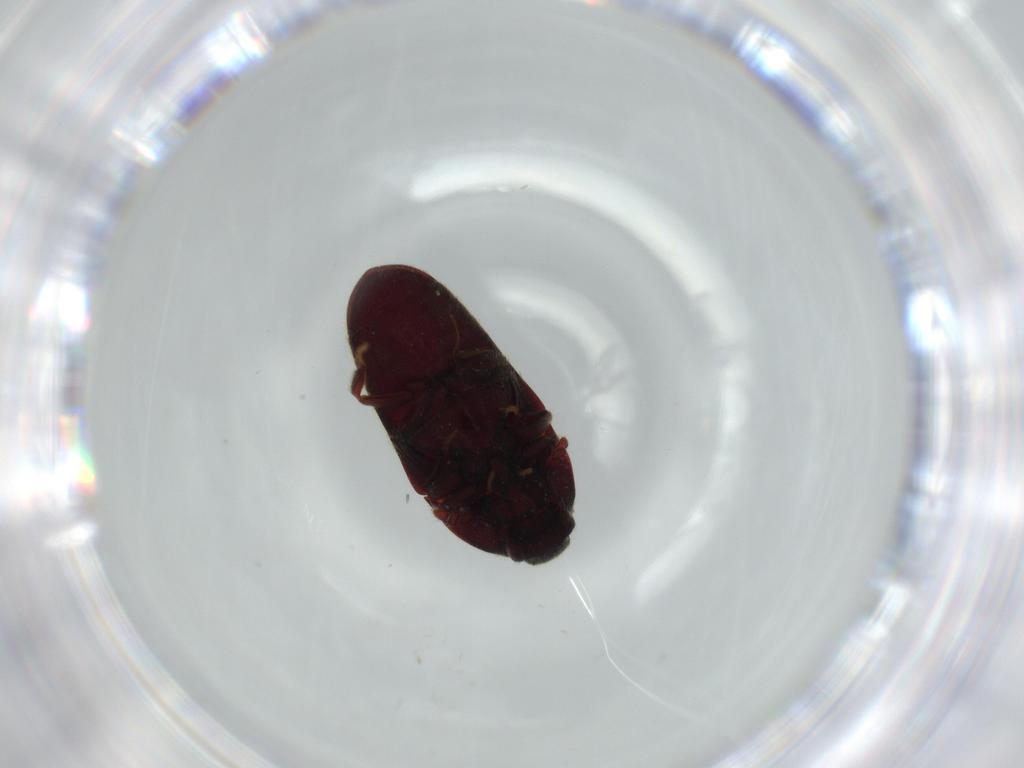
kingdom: Animalia
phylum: Arthropoda
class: Insecta
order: Coleoptera
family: Throscidae
